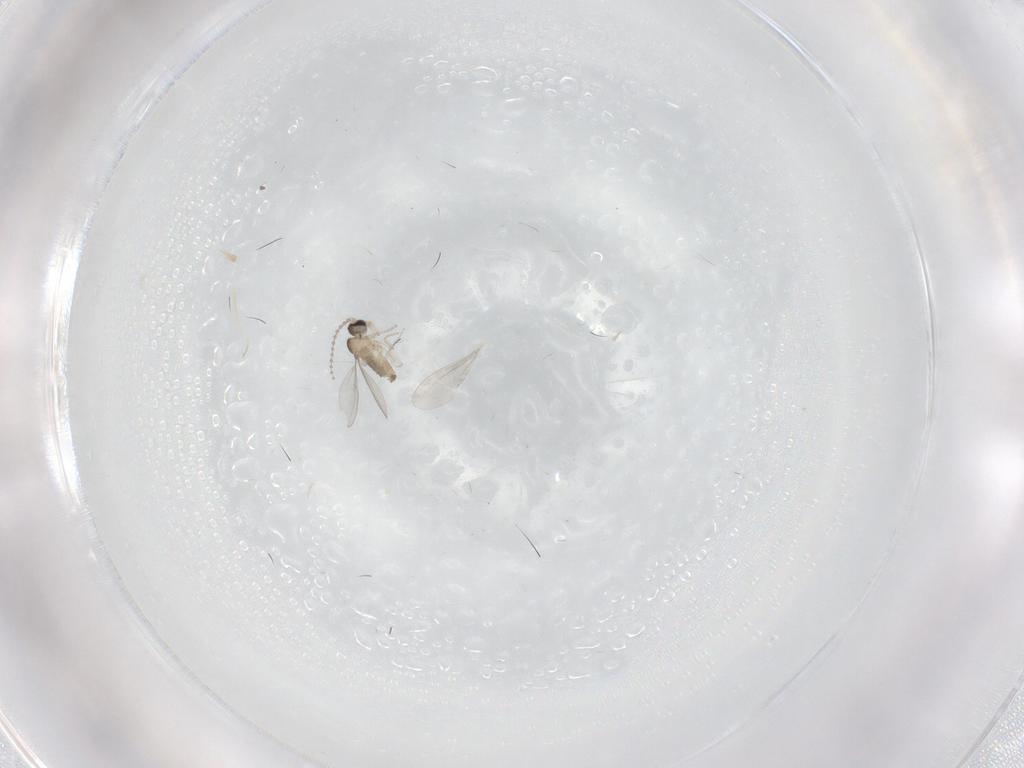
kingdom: Animalia
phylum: Arthropoda
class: Insecta
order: Diptera
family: Cecidomyiidae
